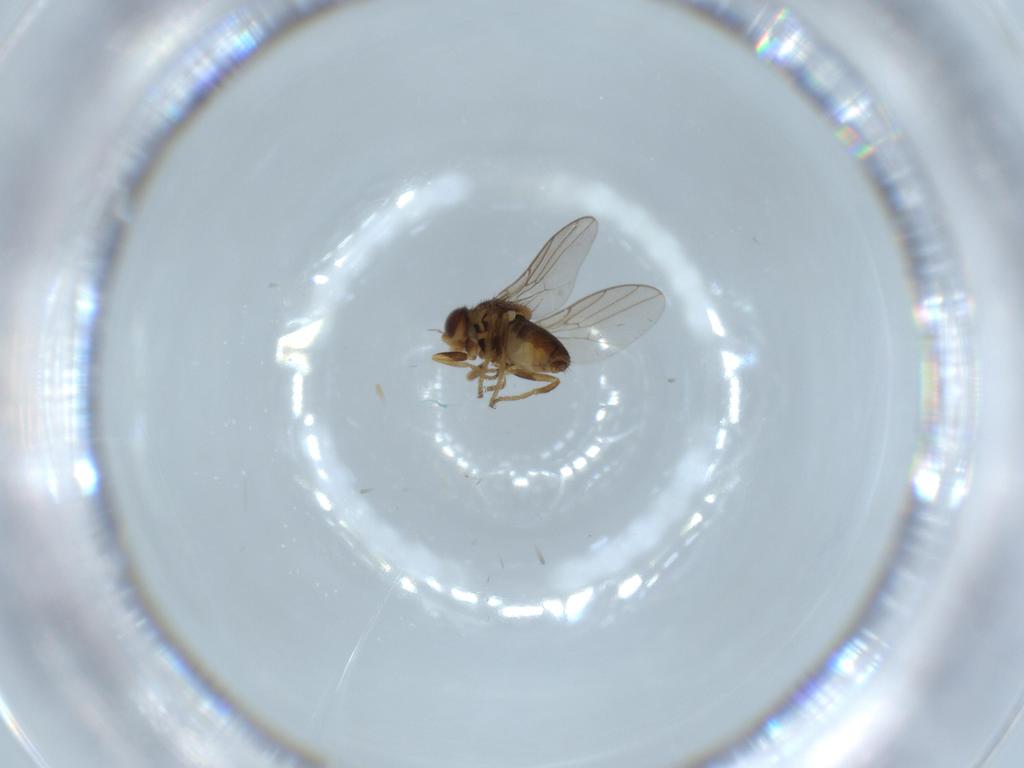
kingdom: Animalia
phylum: Arthropoda
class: Insecta
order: Diptera
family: Chloropidae
